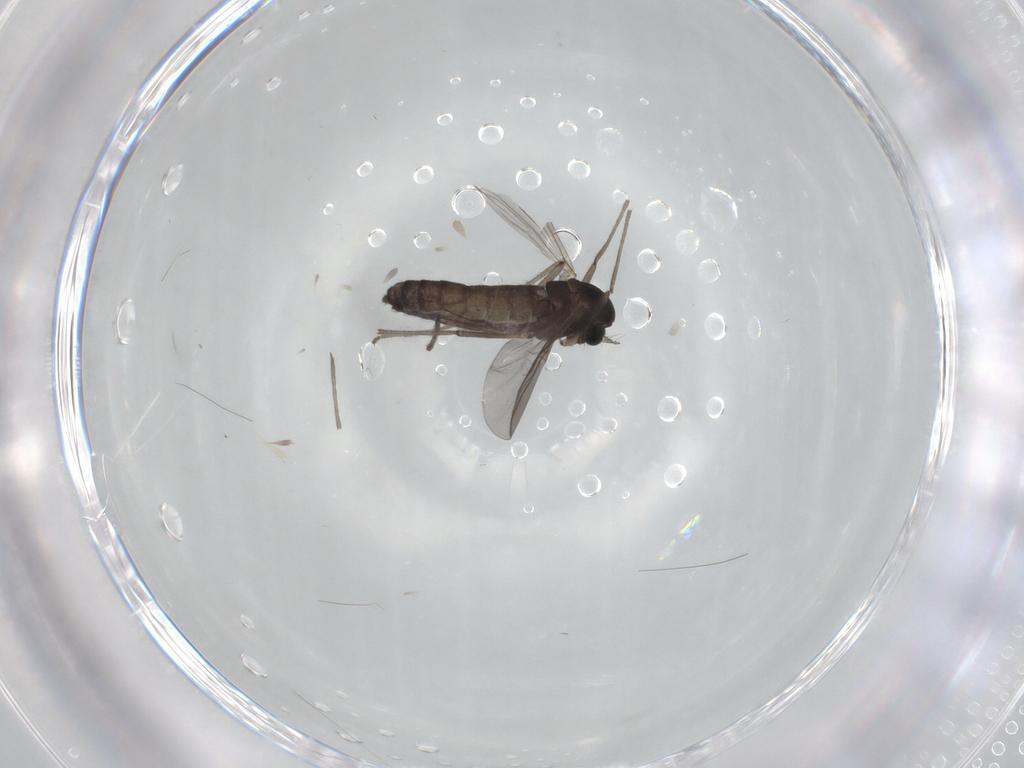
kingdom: Animalia
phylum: Arthropoda
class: Insecta
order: Diptera
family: Chironomidae
